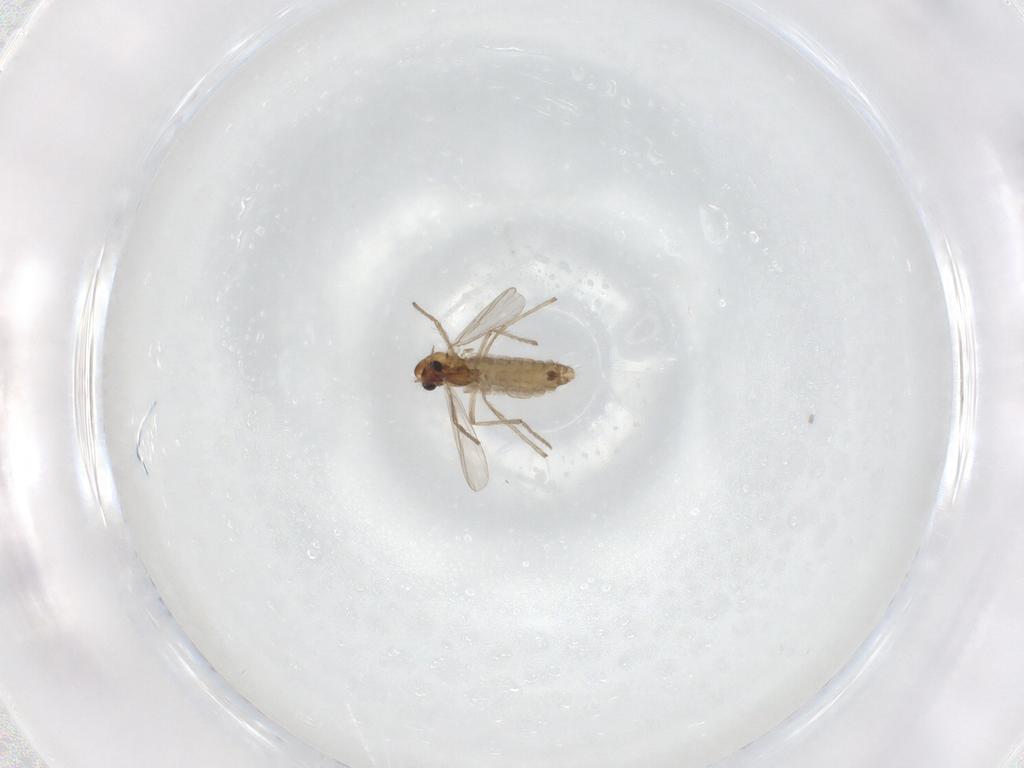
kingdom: Animalia
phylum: Arthropoda
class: Insecta
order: Diptera
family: Chironomidae
